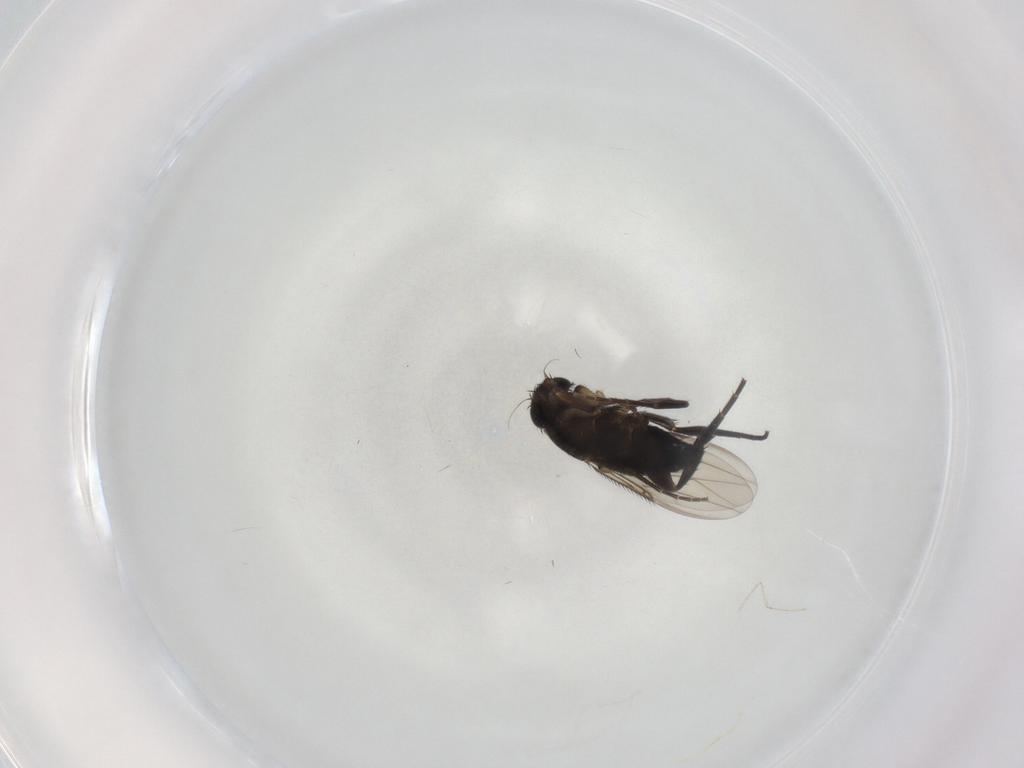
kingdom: Animalia
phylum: Arthropoda
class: Insecta
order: Diptera
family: Phoridae
